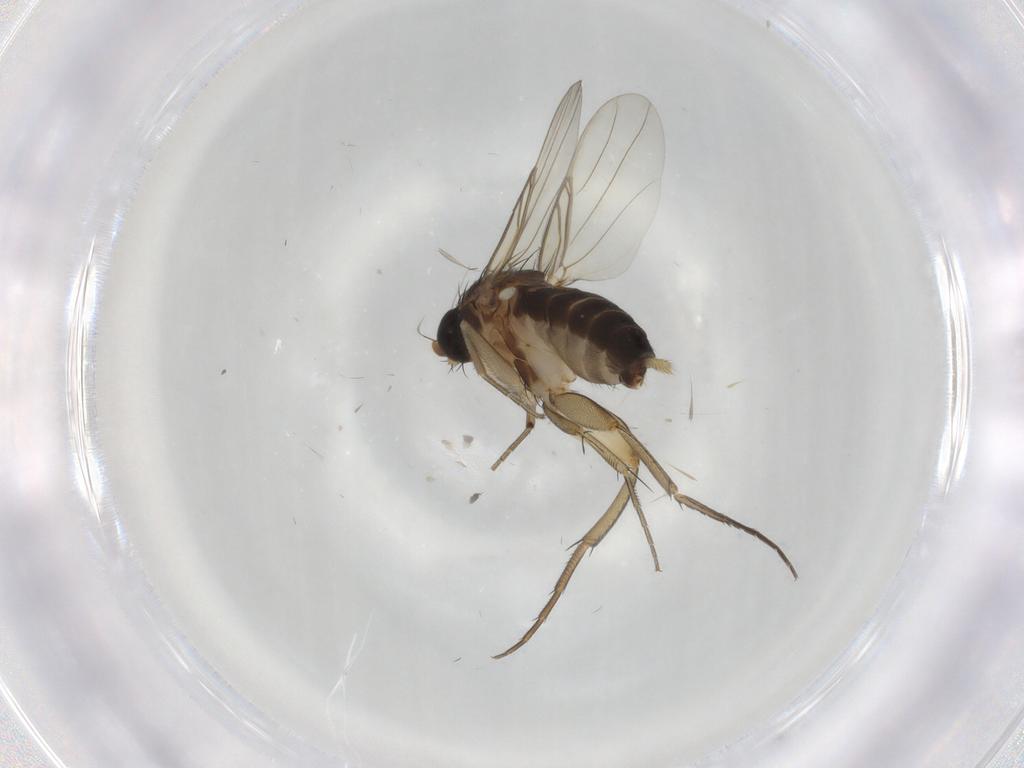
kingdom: Animalia
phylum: Arthropoda
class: Insecta
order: Diptera
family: Phoridae
